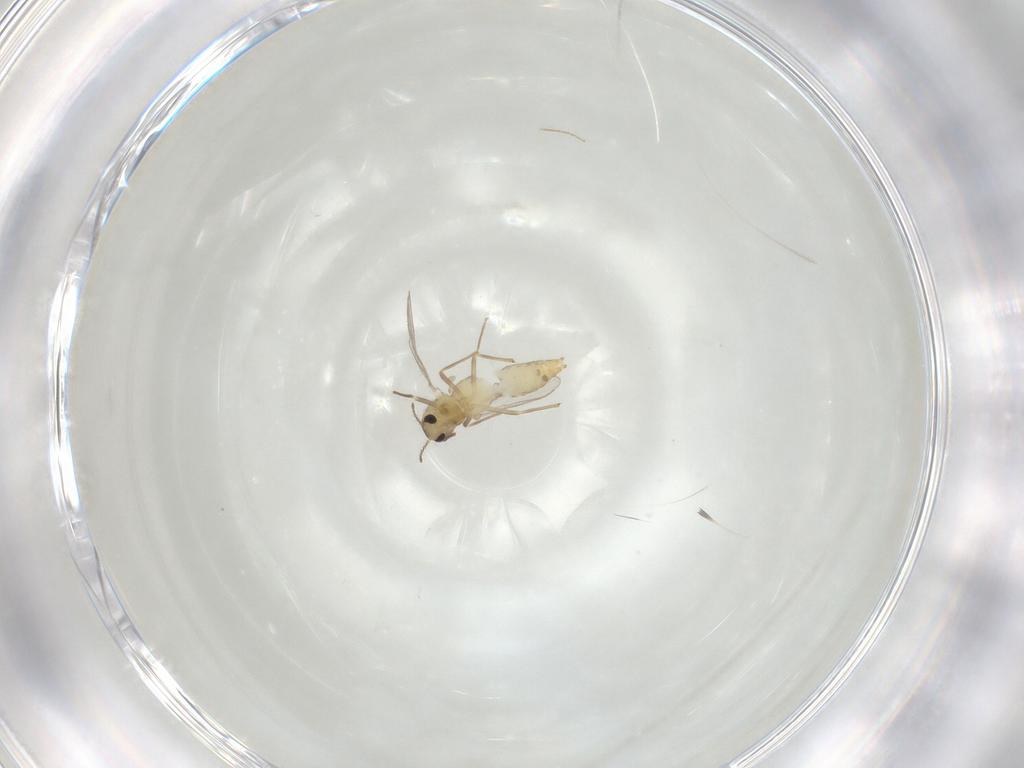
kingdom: Animalia
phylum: Arthropoda
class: Insecta
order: Diptera
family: Chironomidae
